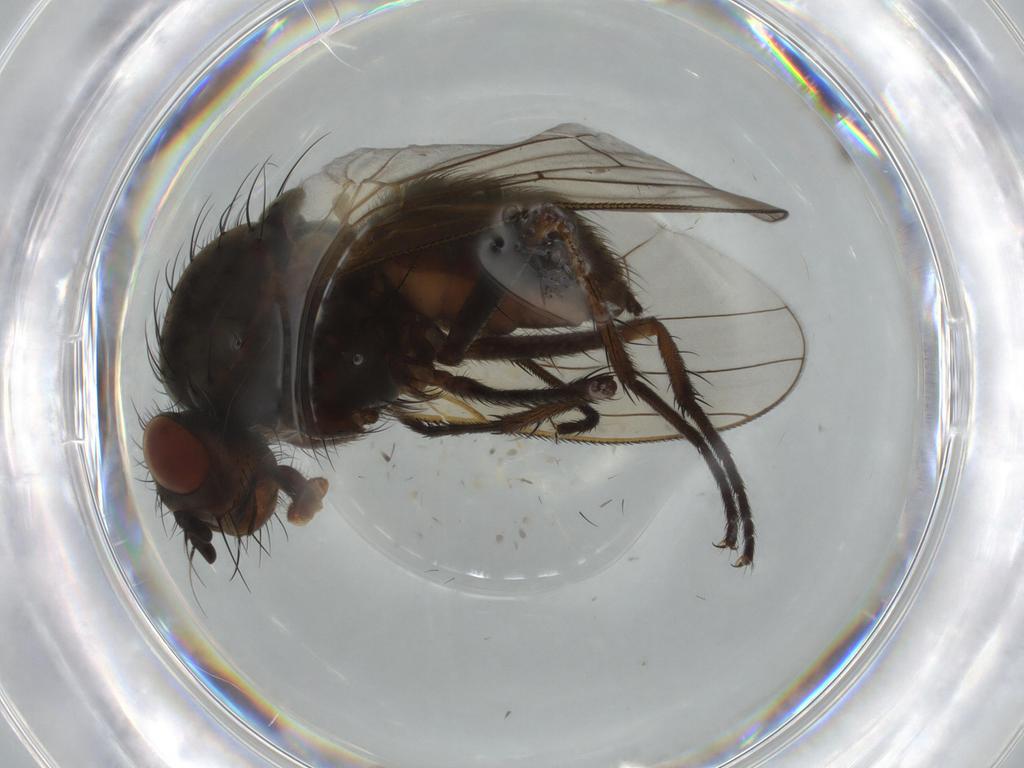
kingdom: Animalia
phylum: Arthropoda
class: Insecta
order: Diptera
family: Anthomyiidae
